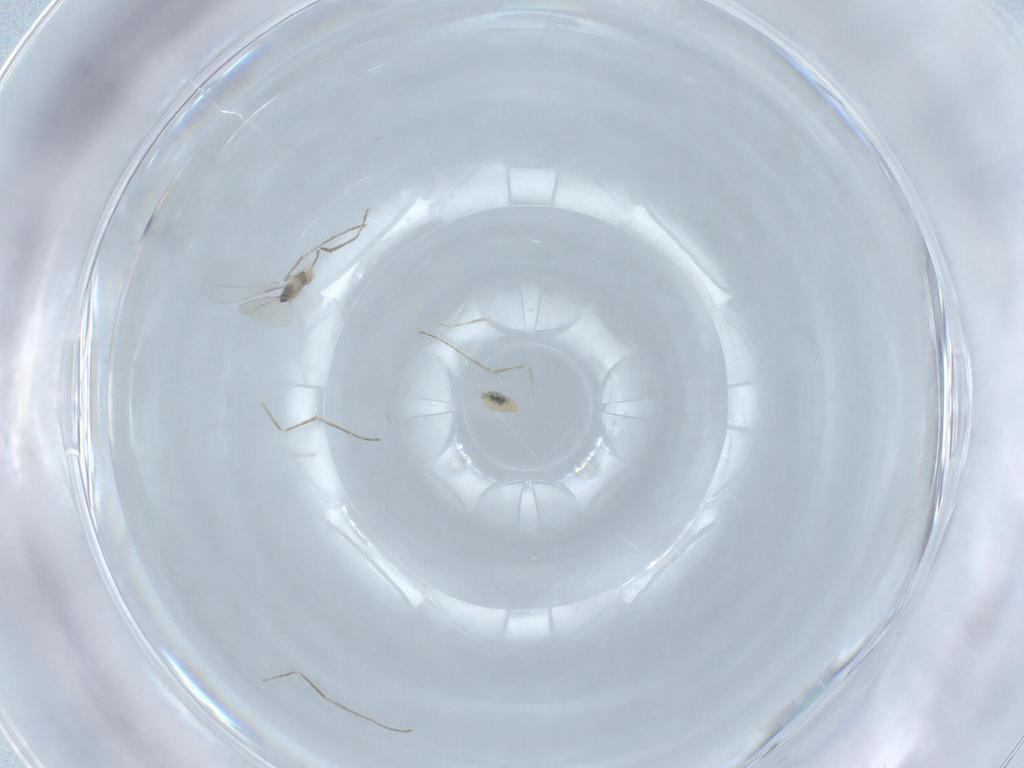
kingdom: Animalia
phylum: Arthropoda
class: Insecta
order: Diptera
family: Cecidomyiidae
